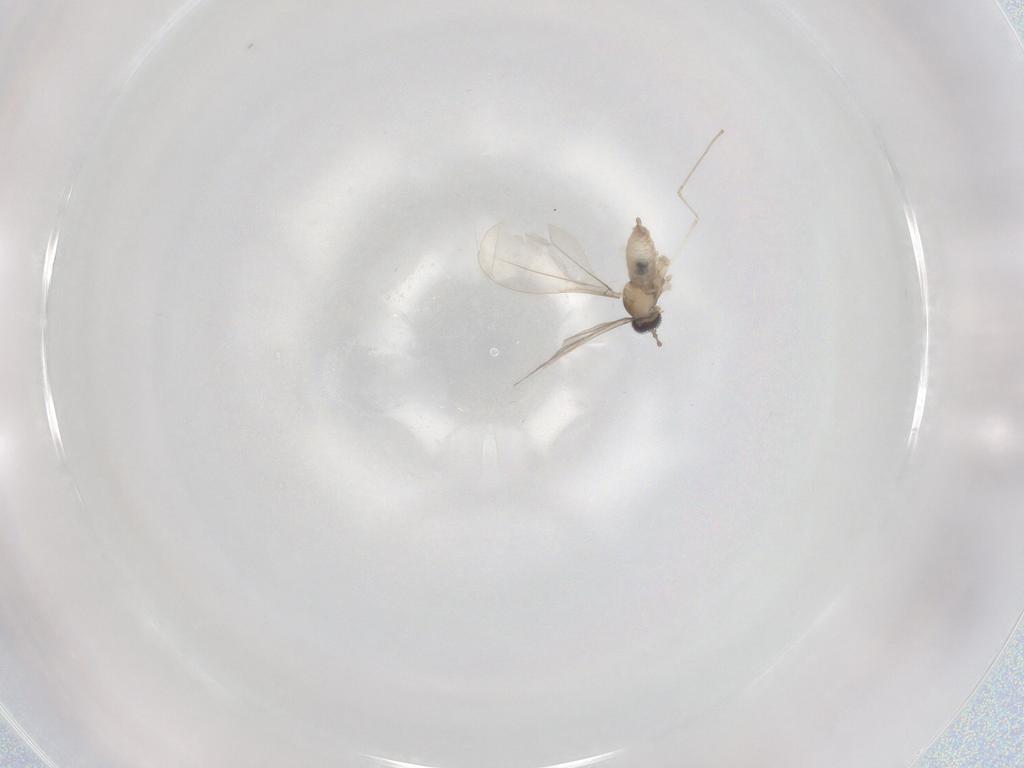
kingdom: Animalia
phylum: Arthropoda
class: Insecta
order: Diptera
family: Cecidomyiidae
